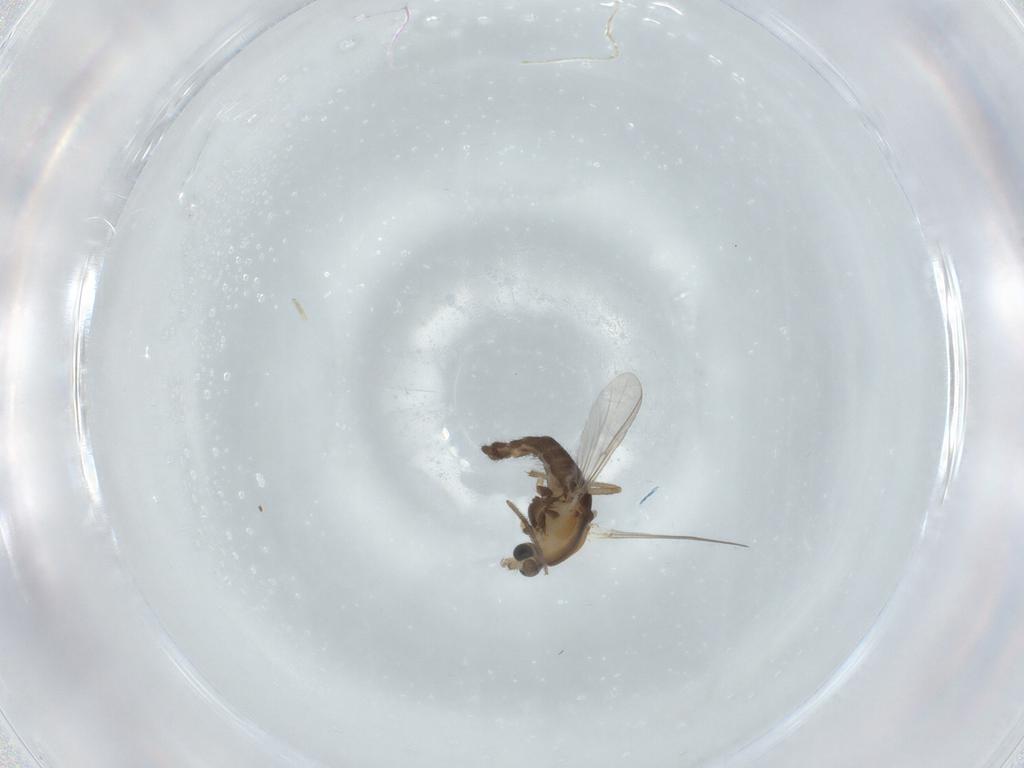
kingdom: Animalia
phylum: Arthropoda
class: Insecta
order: Diptera
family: Chironomidae
